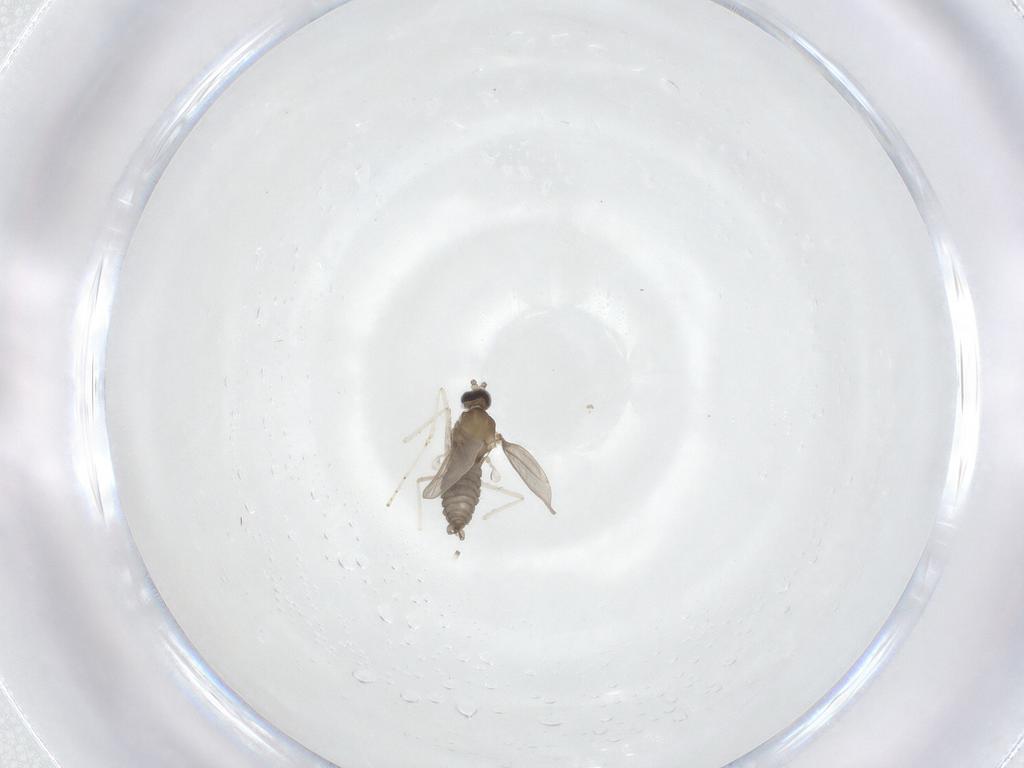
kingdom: Animalia
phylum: Arthropoda
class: Insecta
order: Diptera
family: Cecidomyiidae
